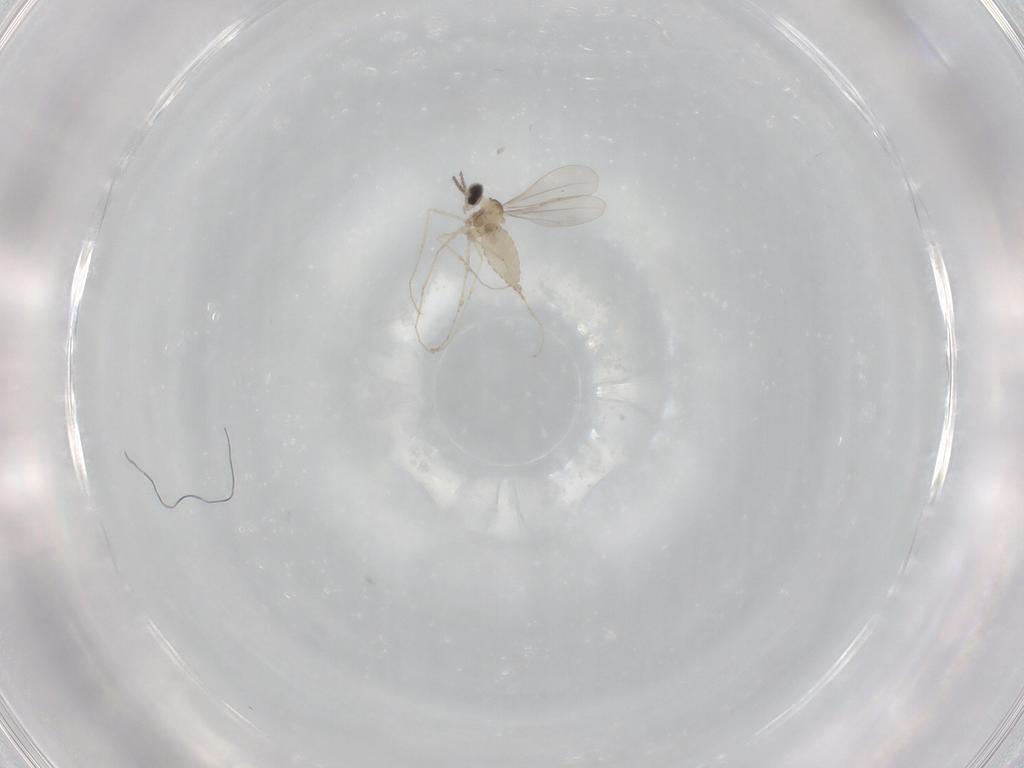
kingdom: Animalia
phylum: Arthropoda
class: Insecta
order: Diptera
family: Cecidomyiidae
